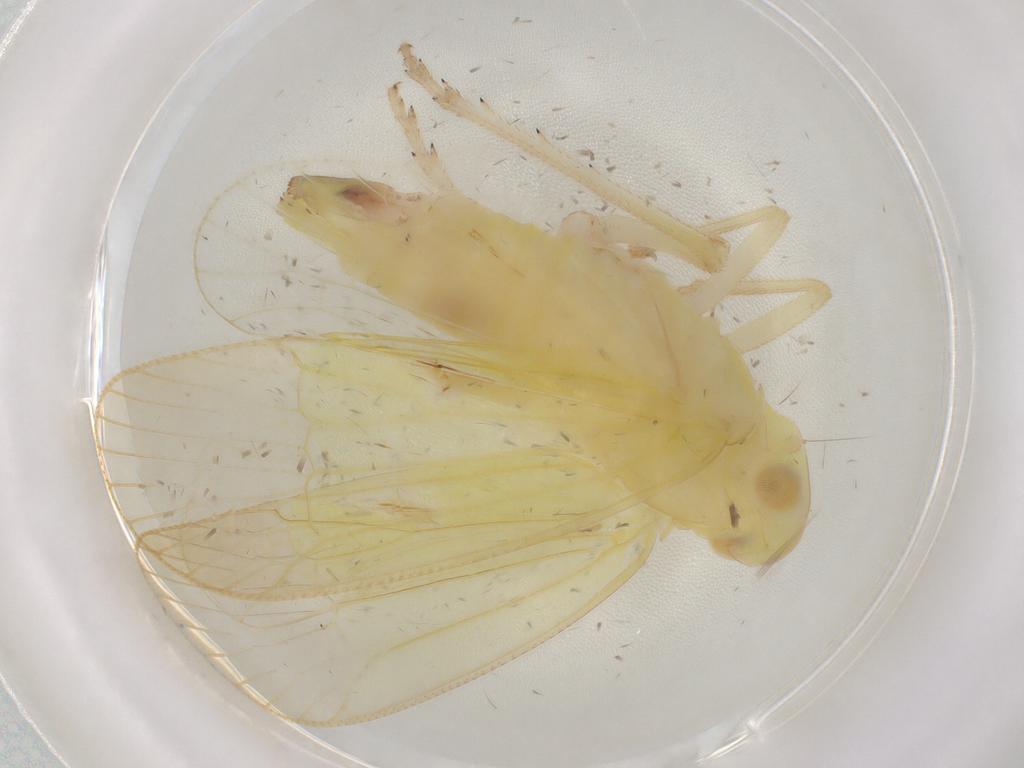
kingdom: Animalia
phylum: Arthropoda
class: Insecta
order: Hemiptera
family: Tropiduchidae
